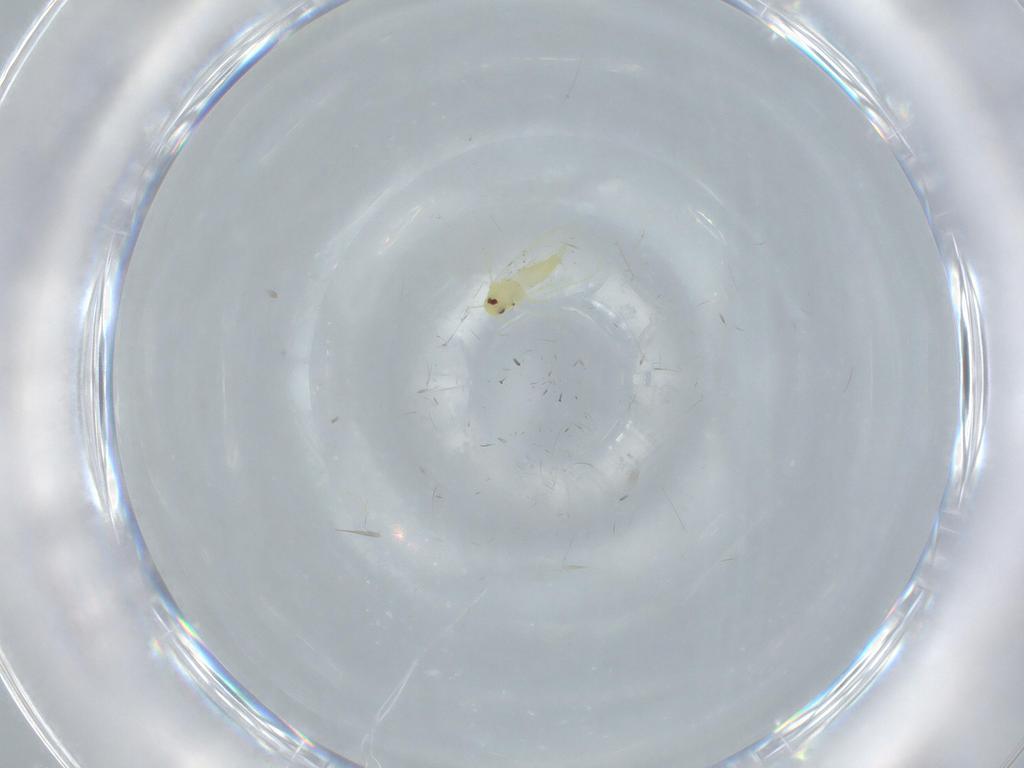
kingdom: Animalia
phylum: Arthropoda
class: Insecta
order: Hemiptera
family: Aleyrodidae
